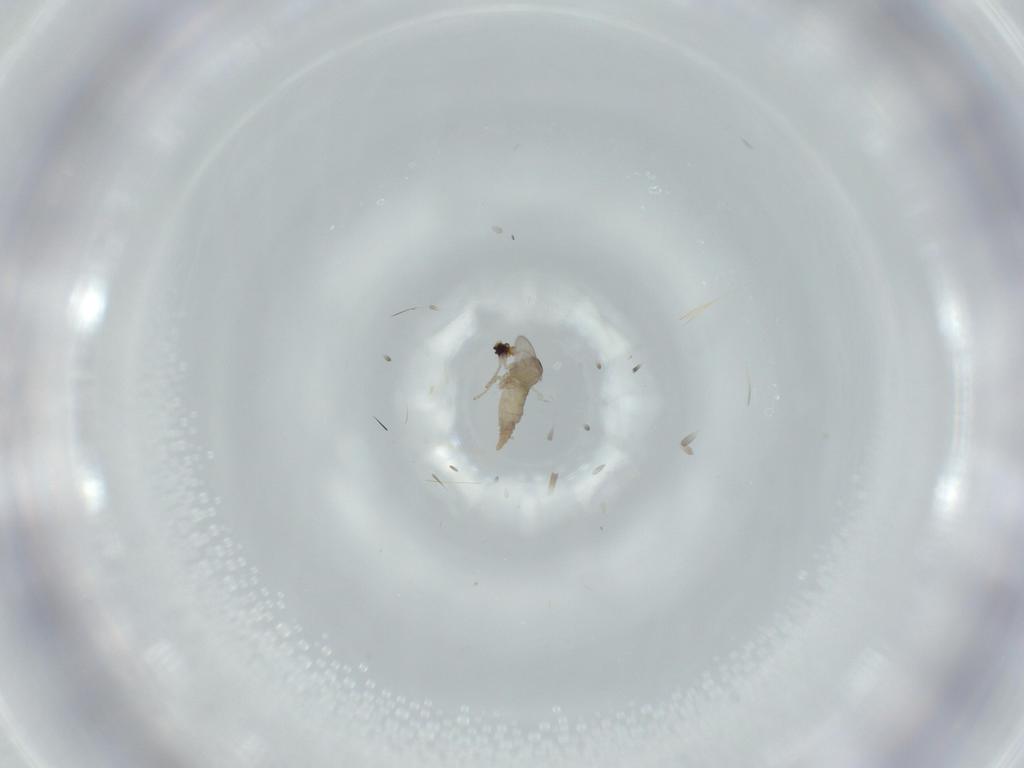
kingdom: Animalia
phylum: Arthropoda
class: Insecta
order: Diptera
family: Cecidomyiidae
